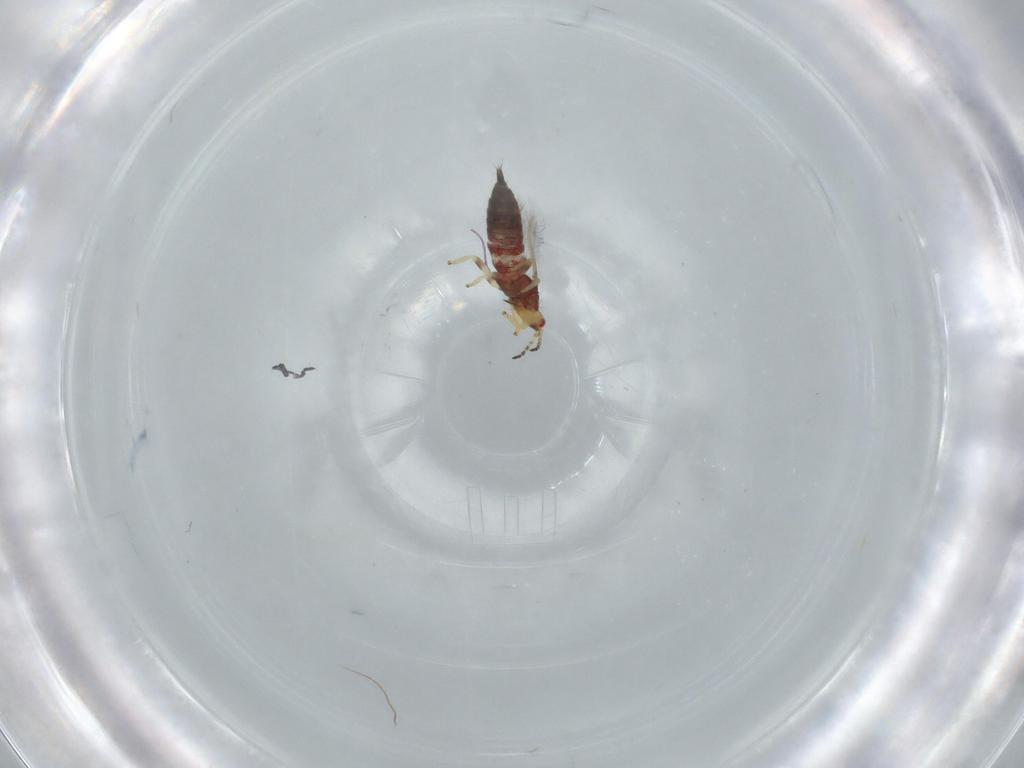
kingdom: Animalia
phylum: Arthropoda
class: Insecta
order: Thysanoptera
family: Phlaeothripidae
